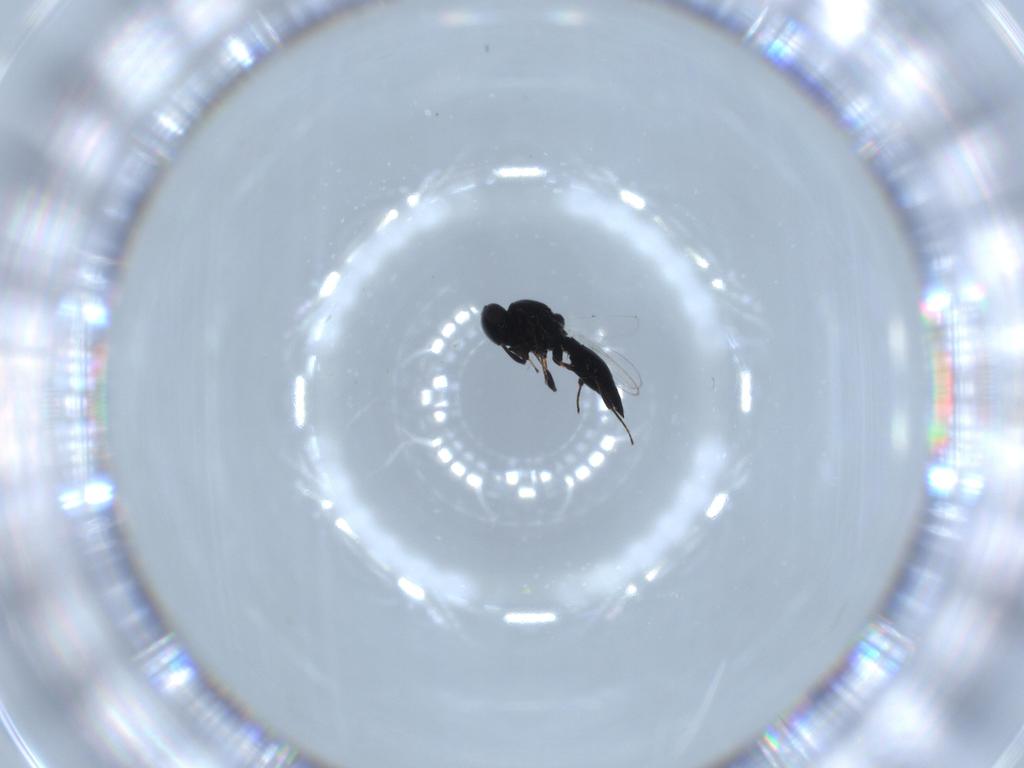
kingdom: Animalia
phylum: Arthropoda
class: Insecta
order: Hymenoptera
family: Platygastridae
